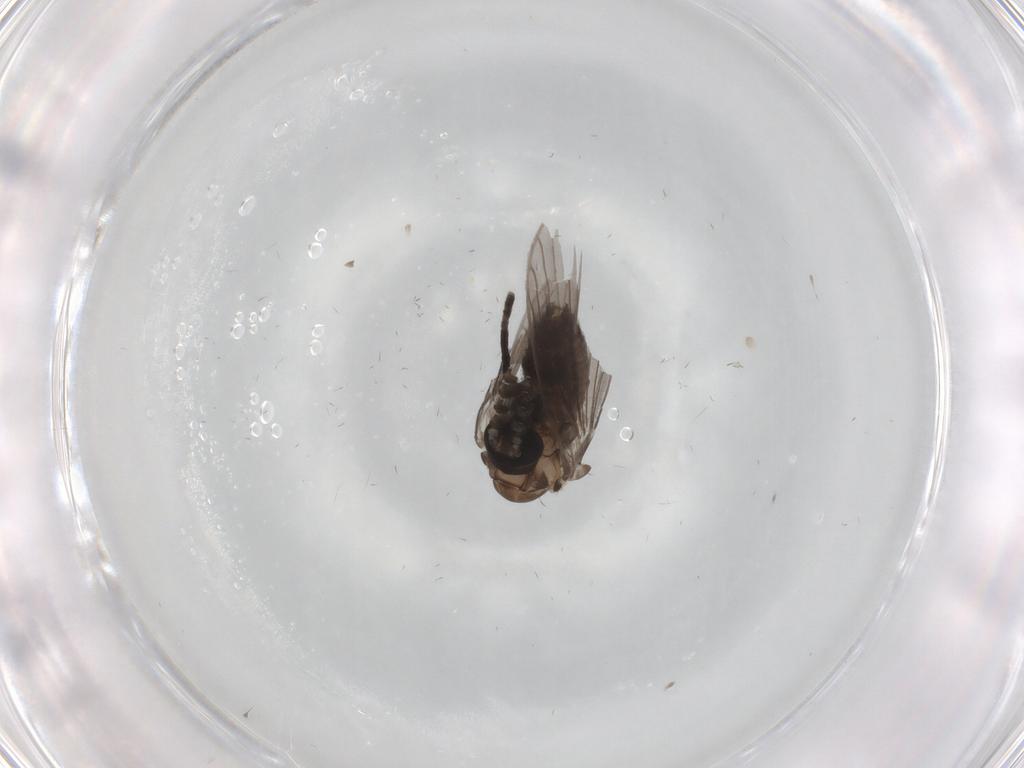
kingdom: Animalia
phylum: Arthropoda
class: Insecta
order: Diptera
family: Psychodidae
